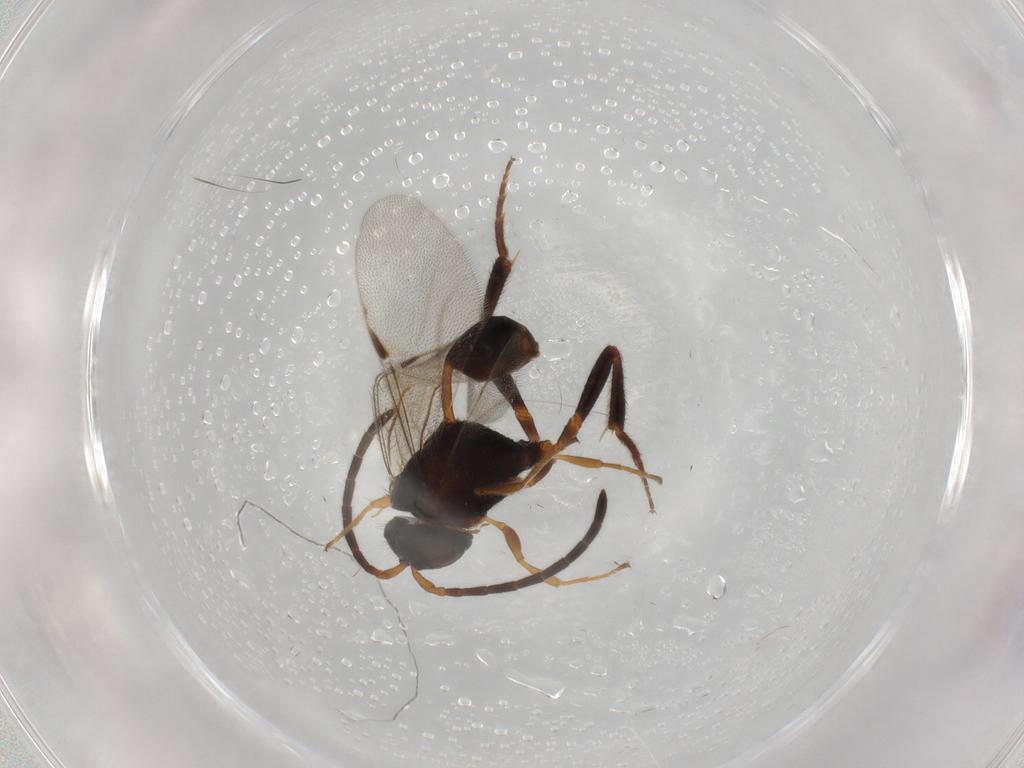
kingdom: Animalia
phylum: Arthropoda
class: Insecta
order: Hymenoptera
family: Evaniidae
